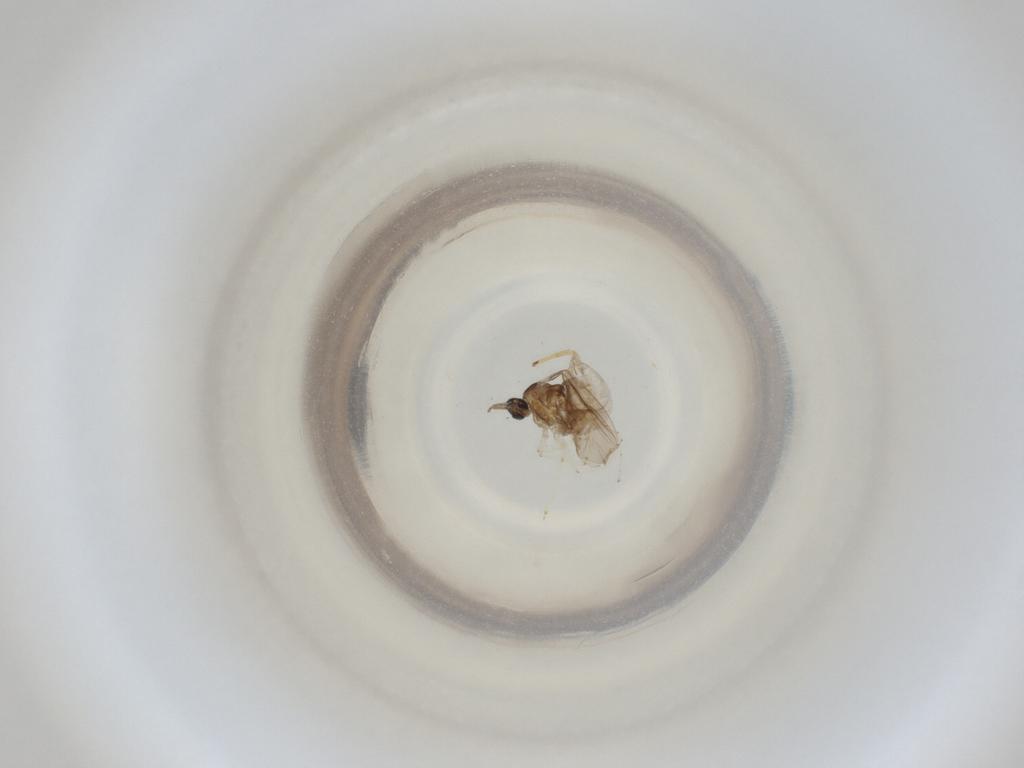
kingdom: Animalia
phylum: Arthropoda
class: Insecta
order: Diptera
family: Cecidomyiidae
